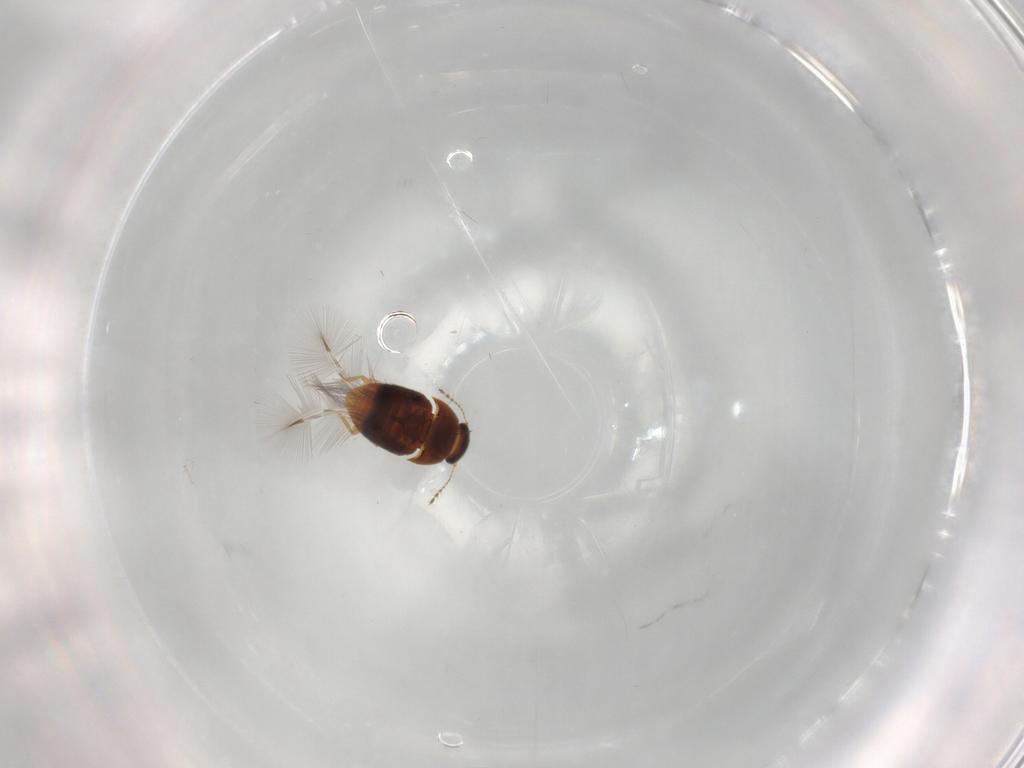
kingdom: Animalia
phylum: Arthropoda
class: Insecta
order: Coleoptera
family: Ptiliidae
